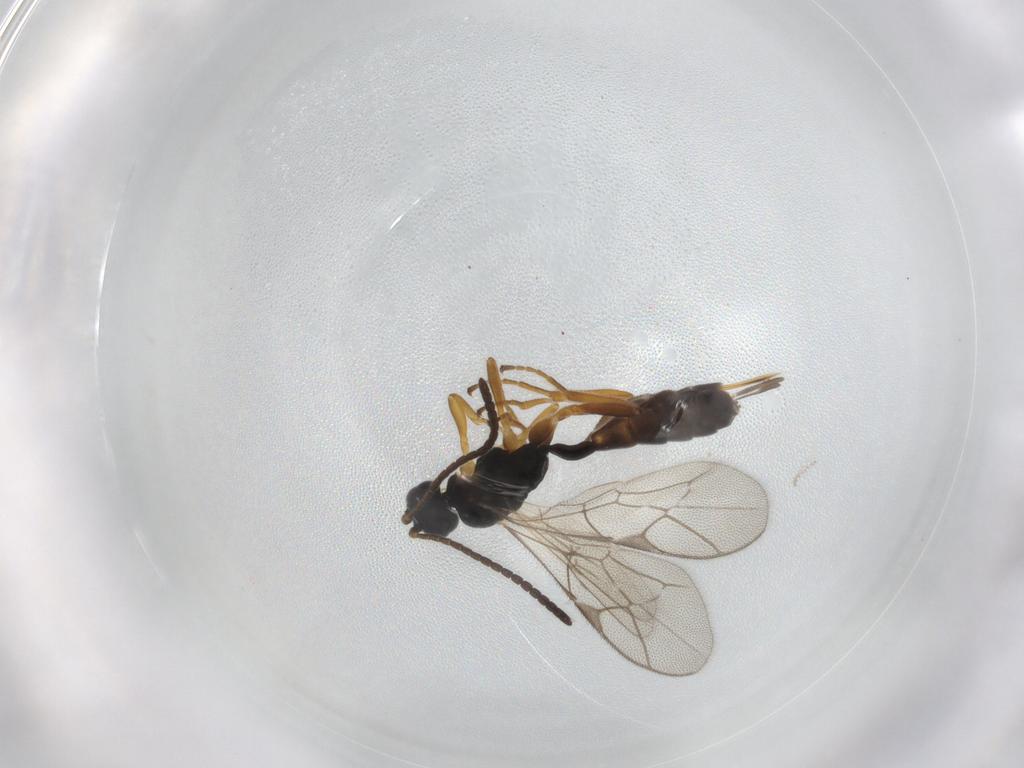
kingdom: Animalia
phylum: Arthropoda
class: Insecta
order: Hymenoptera
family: Ichneumonidae
